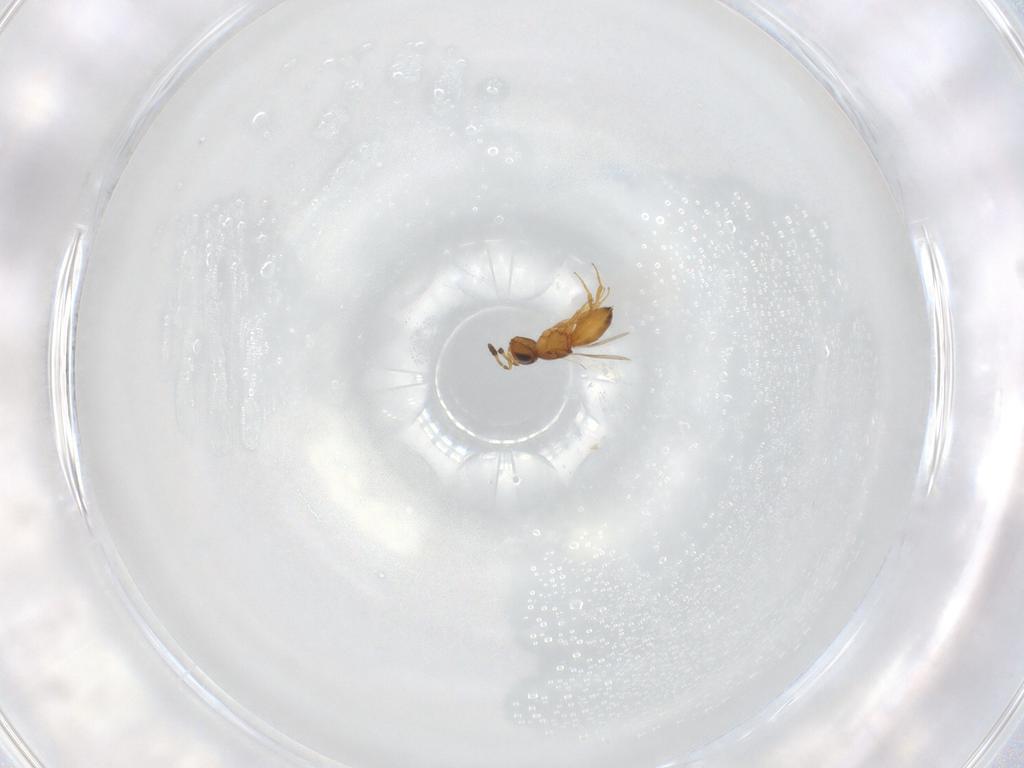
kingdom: Animalia
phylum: Arthropoda
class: Insecta
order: Hymenoptera
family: Scelionidae
